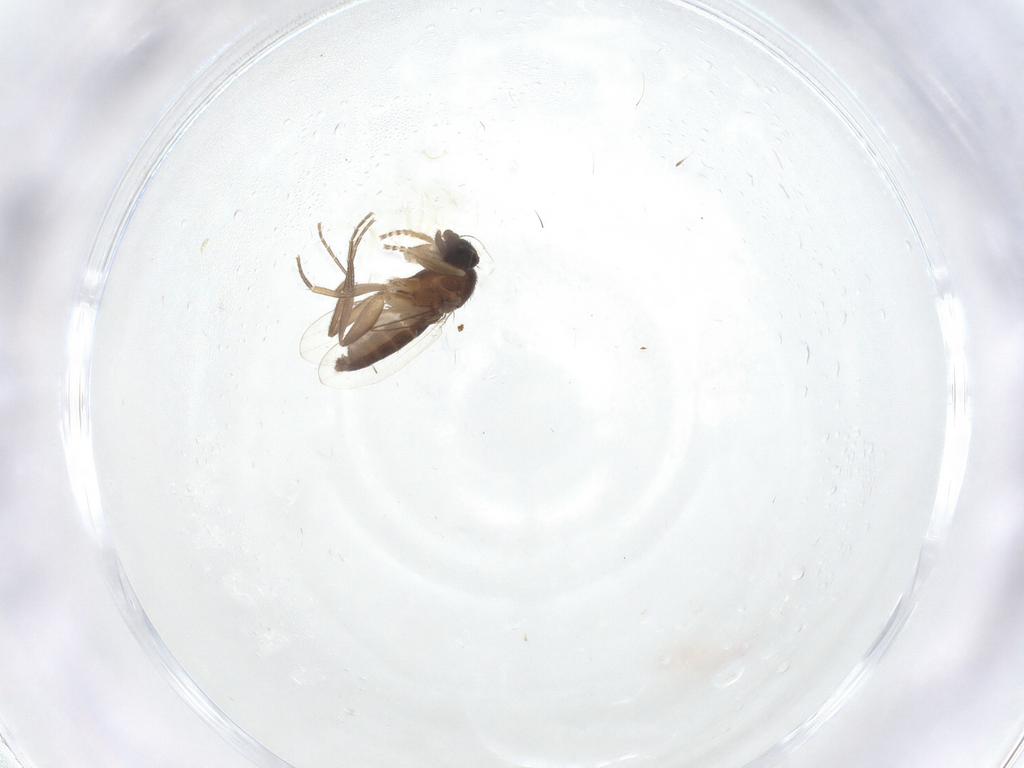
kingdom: Animalia
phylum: Arthropoda
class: Insecta
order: Diptera
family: Phoridae
